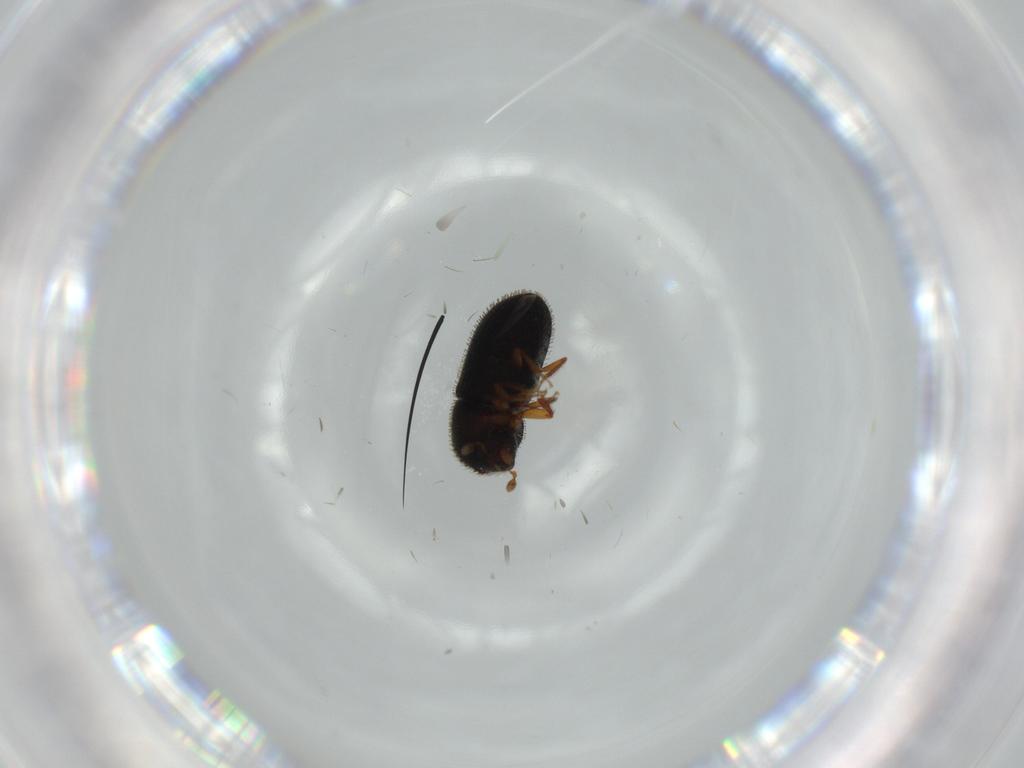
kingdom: Animalia
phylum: Arthropoda
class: Insecta
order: Coleoptera
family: Curculionidae
